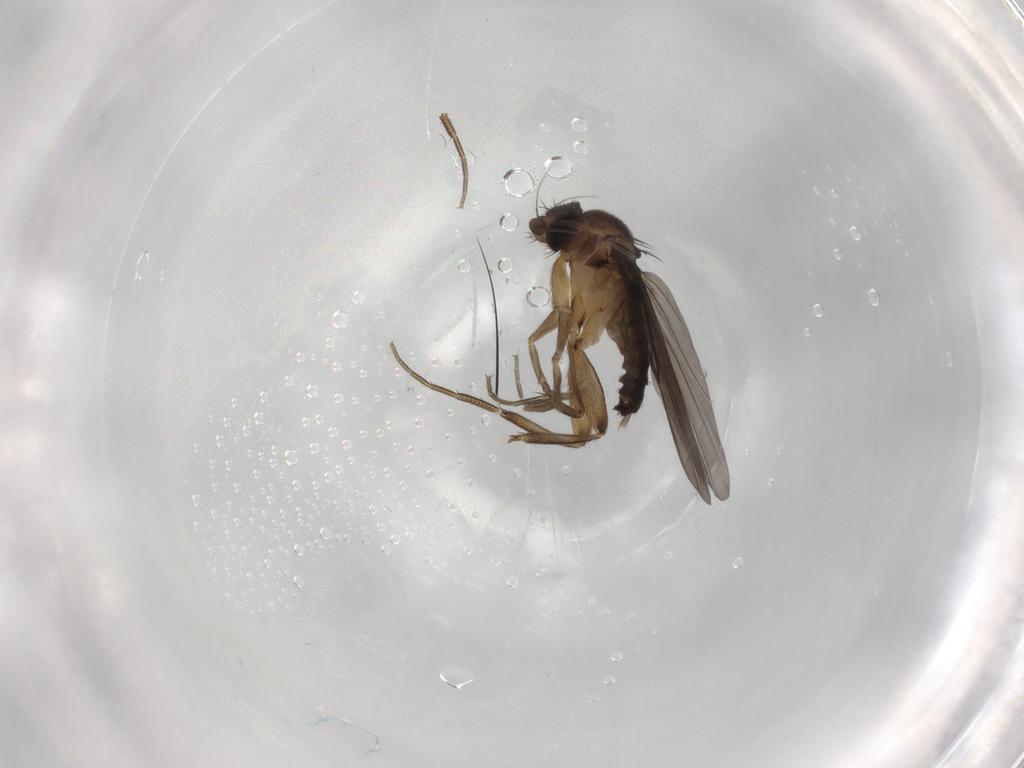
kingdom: Animalia
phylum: Arthropoda
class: Insecta
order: Diptera
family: Phoridae
